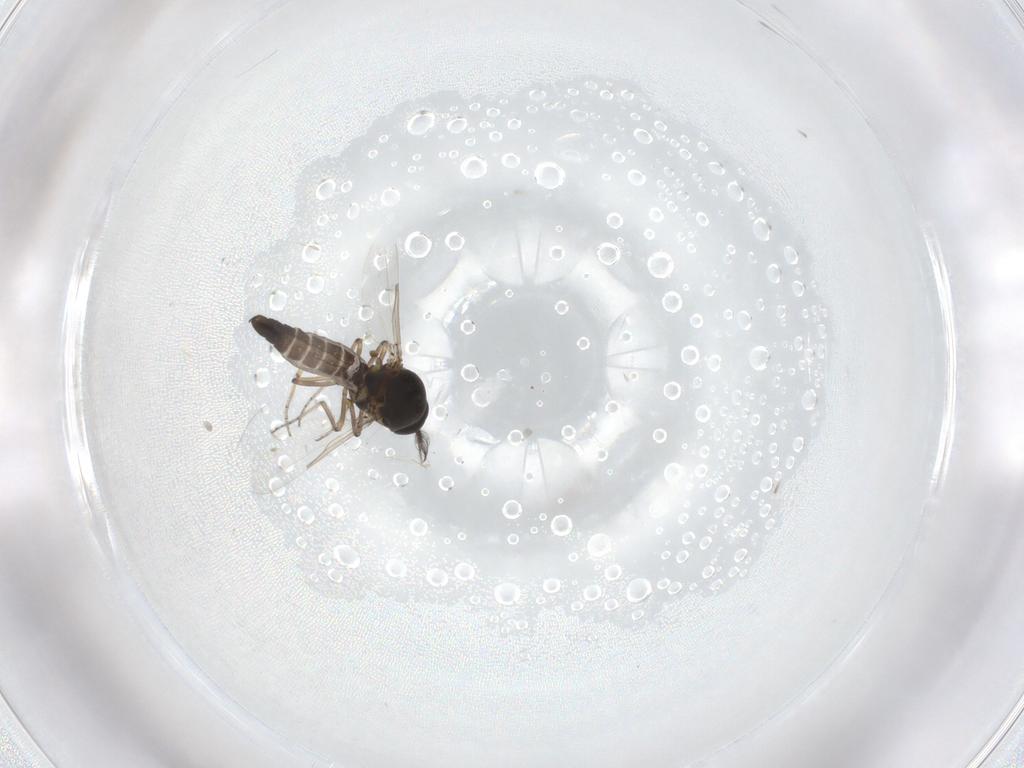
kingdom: Animalia
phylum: Arthropoda
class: Insecta
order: Diptera
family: Ceratopogonidae
